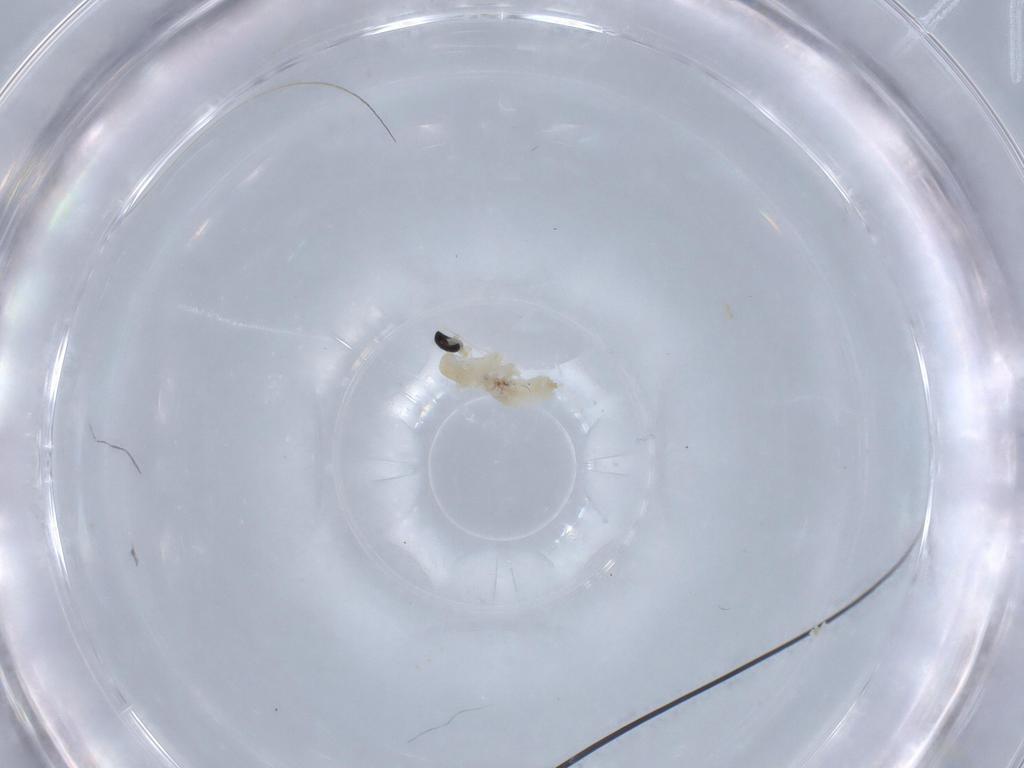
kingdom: Animalia
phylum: Arthropoda
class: Insecta
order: Diptera
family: Cecidomyiidae
